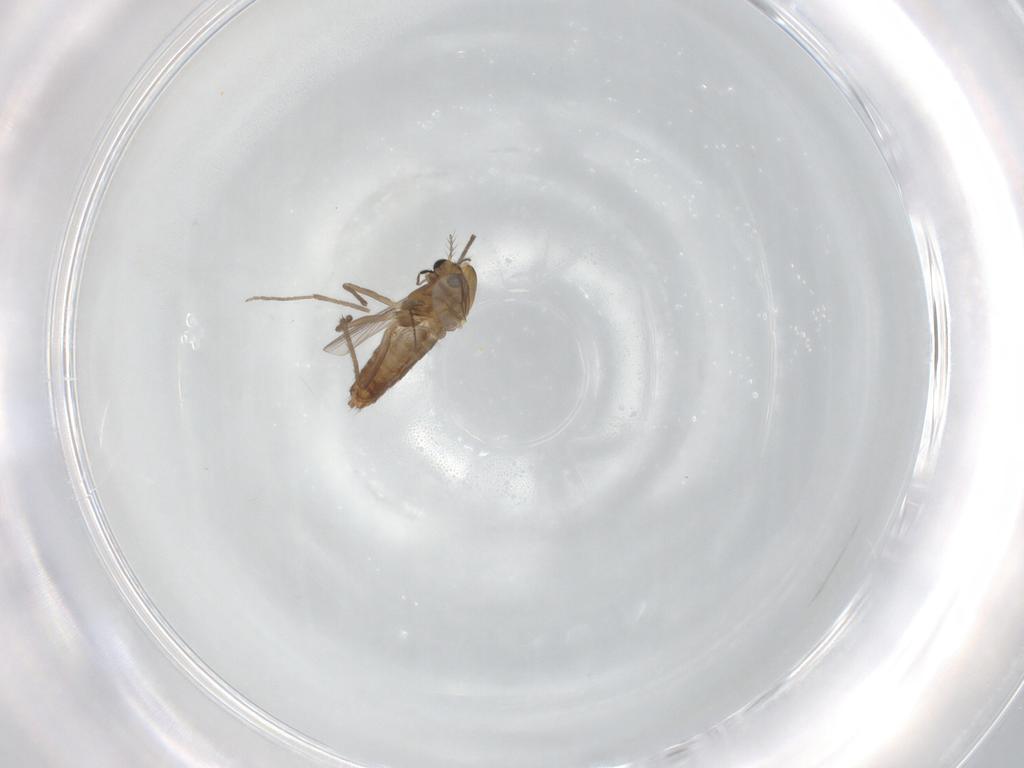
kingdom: Animalia
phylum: Arthropoda
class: Insecta
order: Diptera
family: Chironomidae
